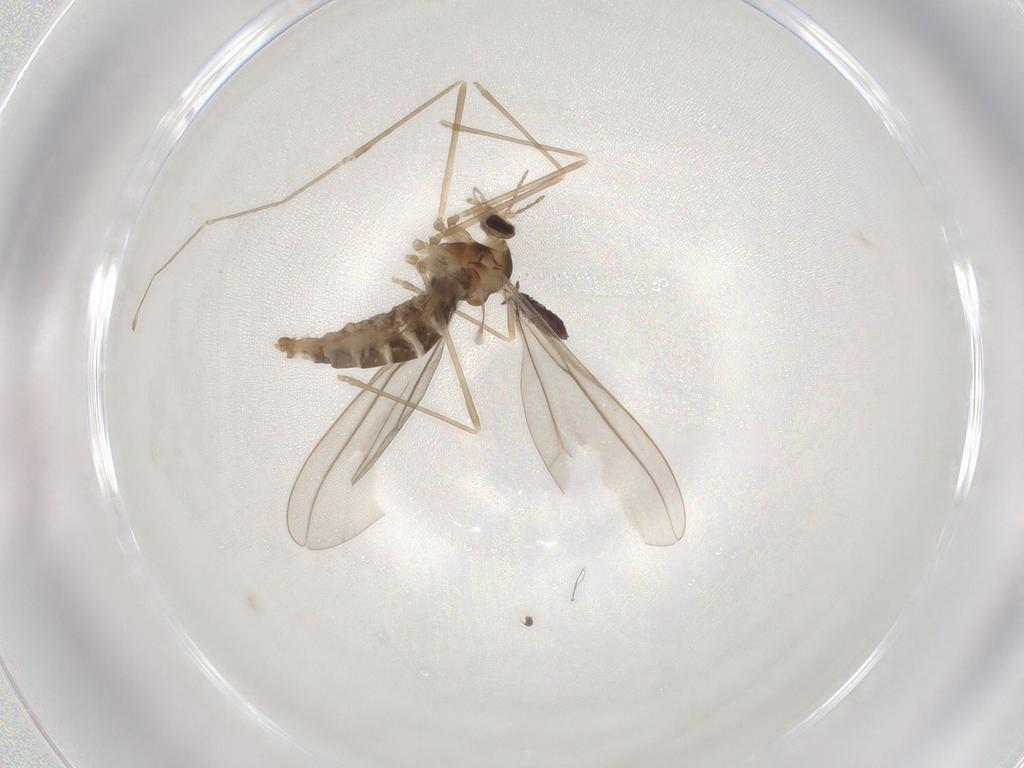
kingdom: Animalia
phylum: Arthropoda
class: Insecta
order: Diptera
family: Cecidomyiidae
